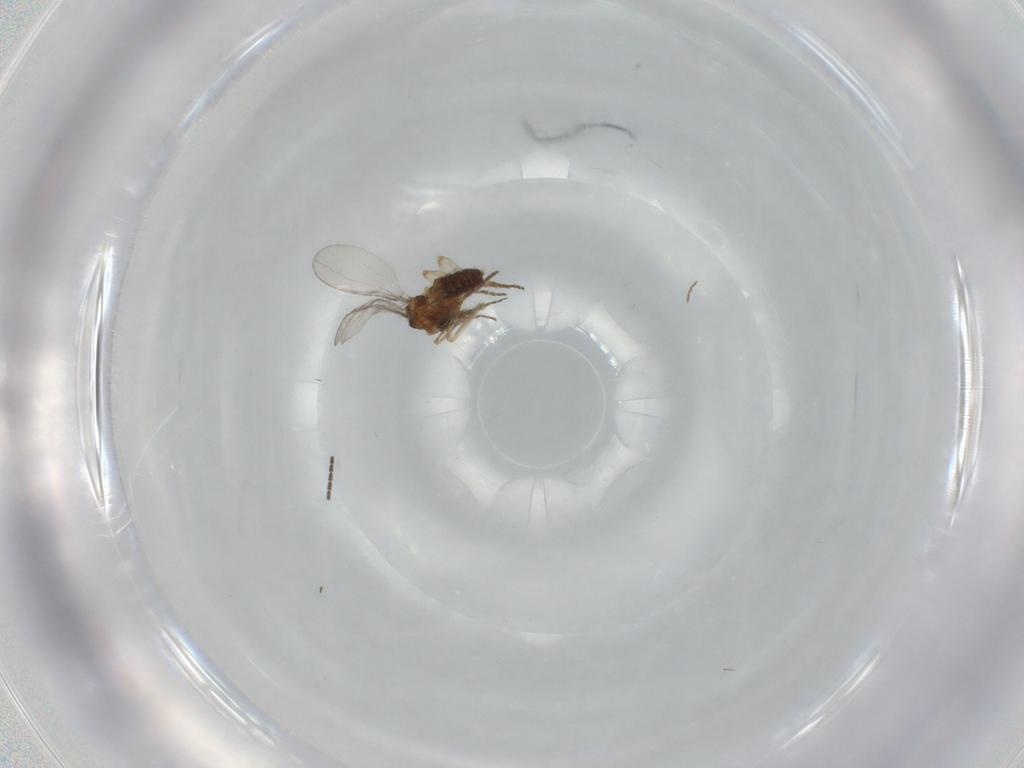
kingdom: Animalia
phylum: Arthropoda
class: Insecta
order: Diptera
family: Sciaridae
